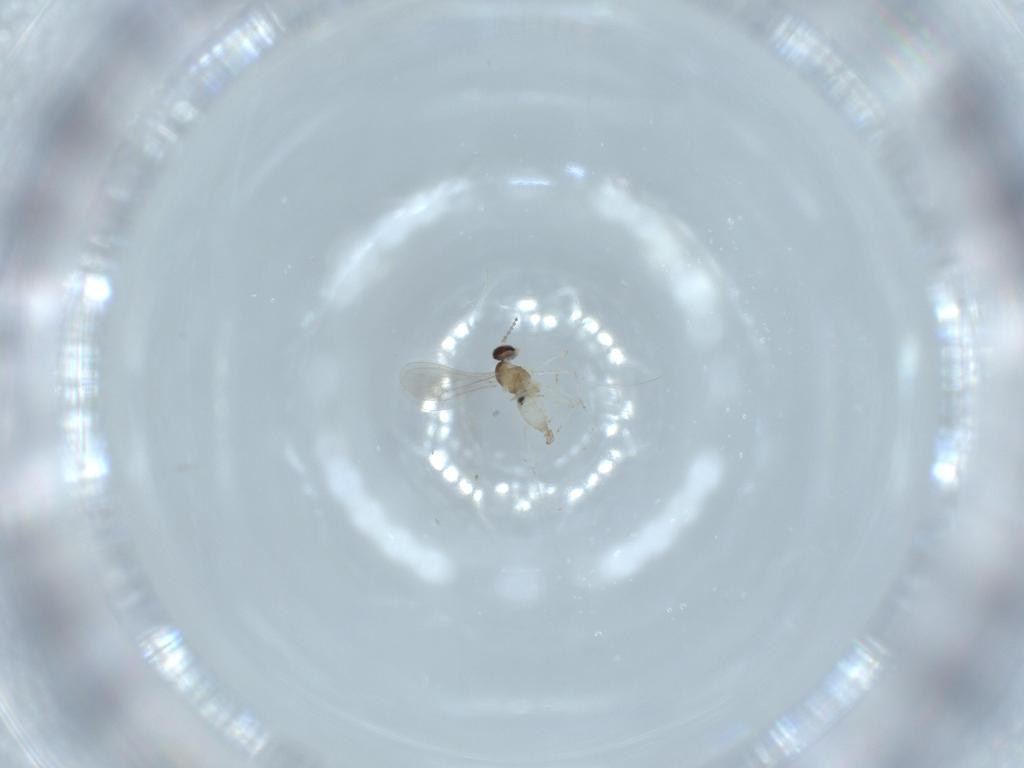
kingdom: Animalia
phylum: Arthropoda
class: Insecta
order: Diptera
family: Cecidomyiidae
